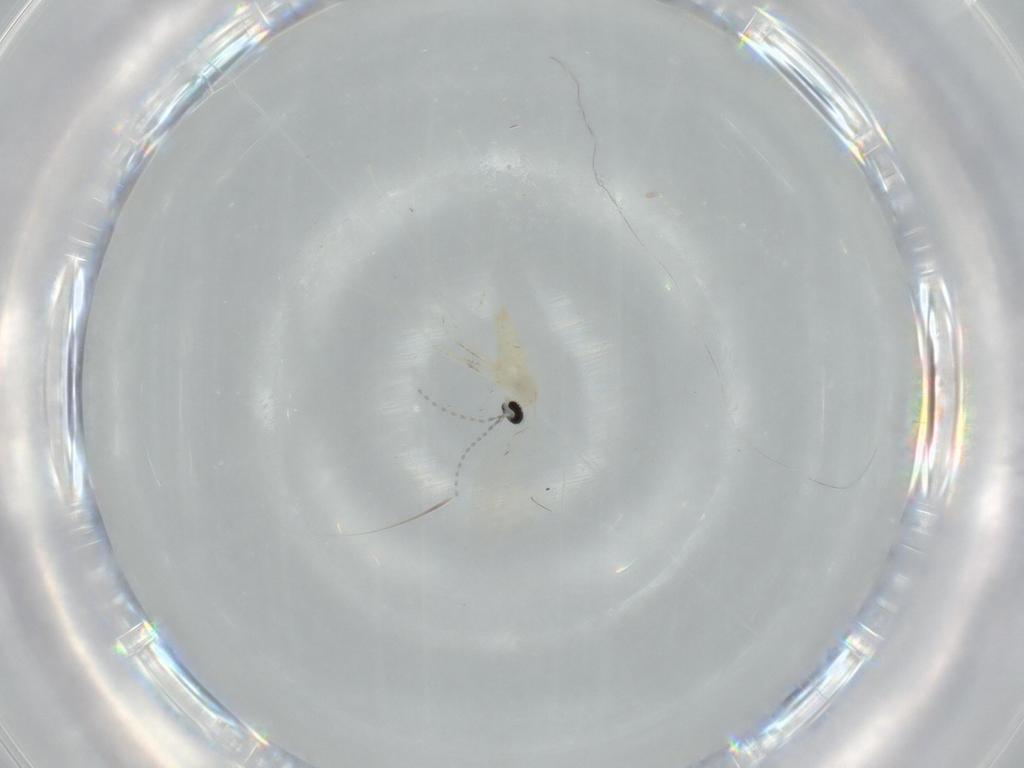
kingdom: Animalia
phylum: Arthropoda
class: Insecta
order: Diptera
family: Cecidomyiidae
